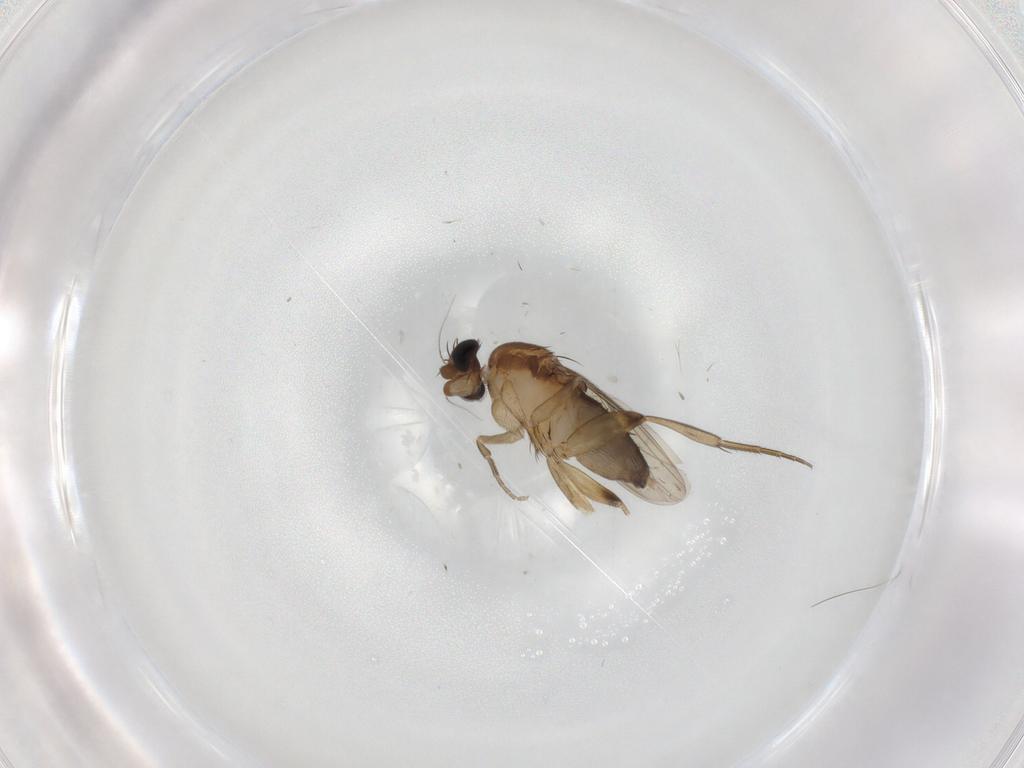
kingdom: Animalia
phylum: Arthropoda
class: Insecta
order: Diptera
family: Phoridae
